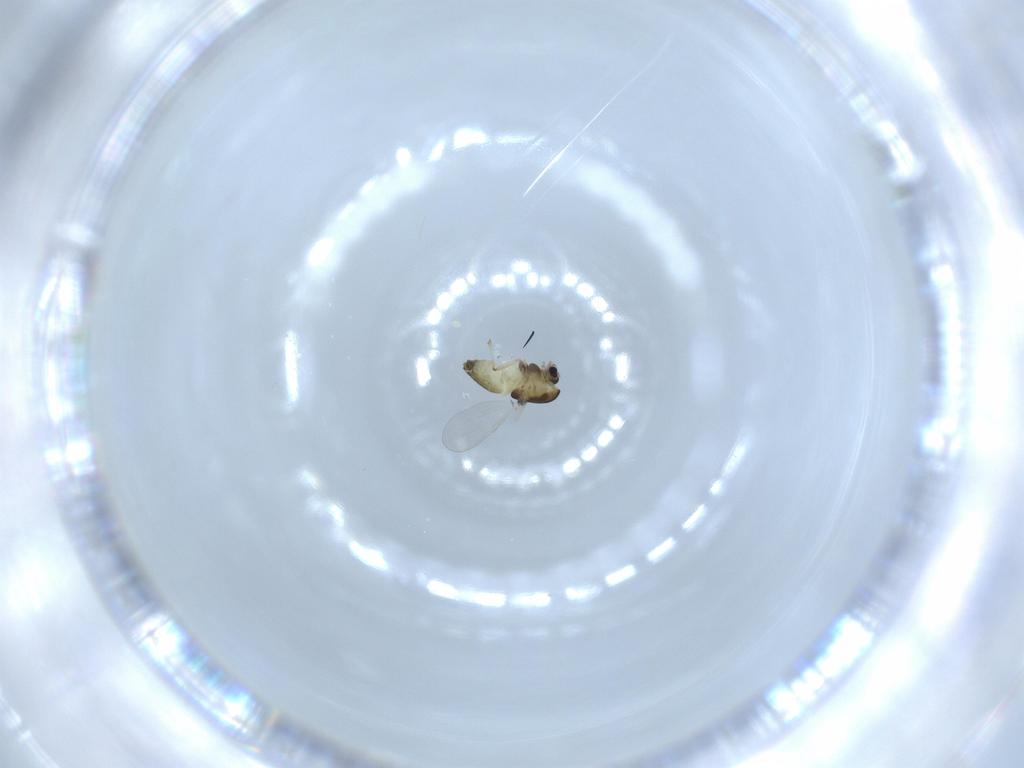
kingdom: Animalia
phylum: Arthropoda
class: Insecta
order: Diptera
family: Chironomidae
